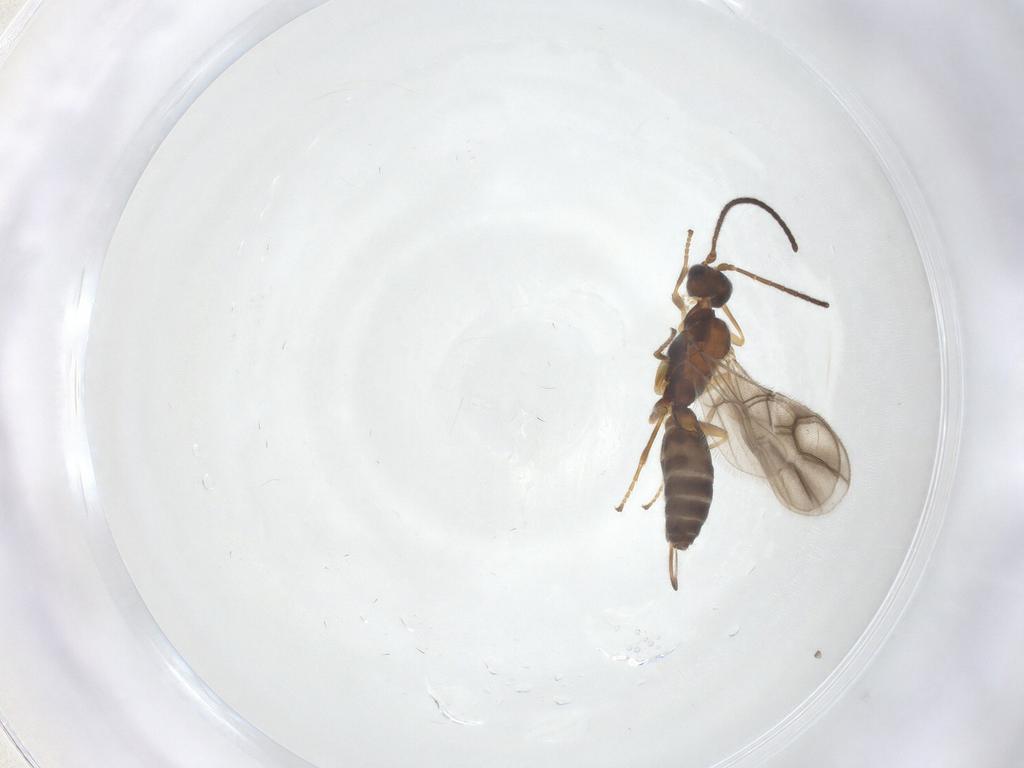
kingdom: Animalia
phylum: Arthropoda
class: Insecta
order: Hymenoptera
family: Braconidae
